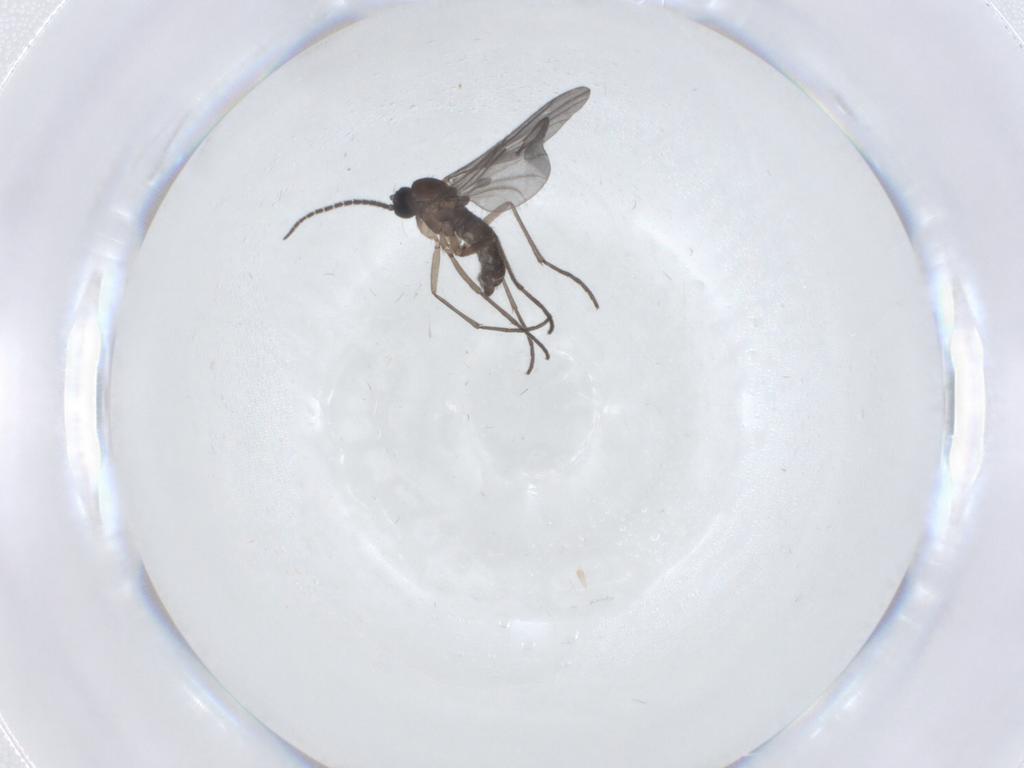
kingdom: Animalia
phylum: Arthropoda
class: Insecta
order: Diptera
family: Sciaridae
